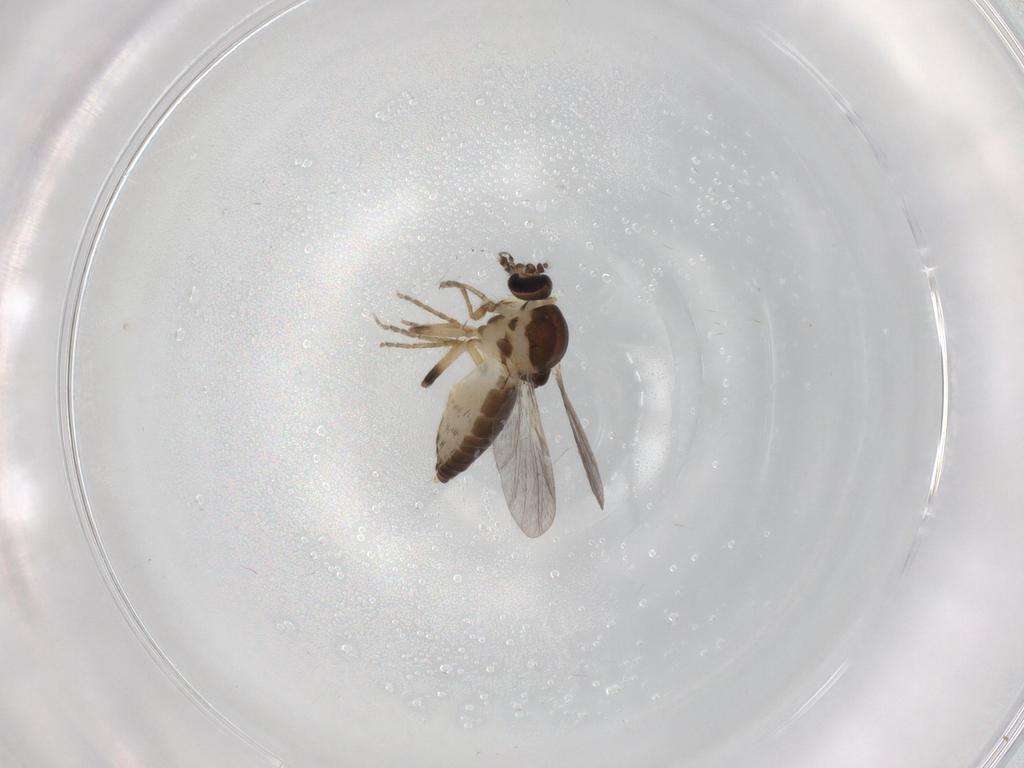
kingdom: Animalia
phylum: Arthropoda
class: Insecta
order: Diptera
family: Ceratopogonidae
